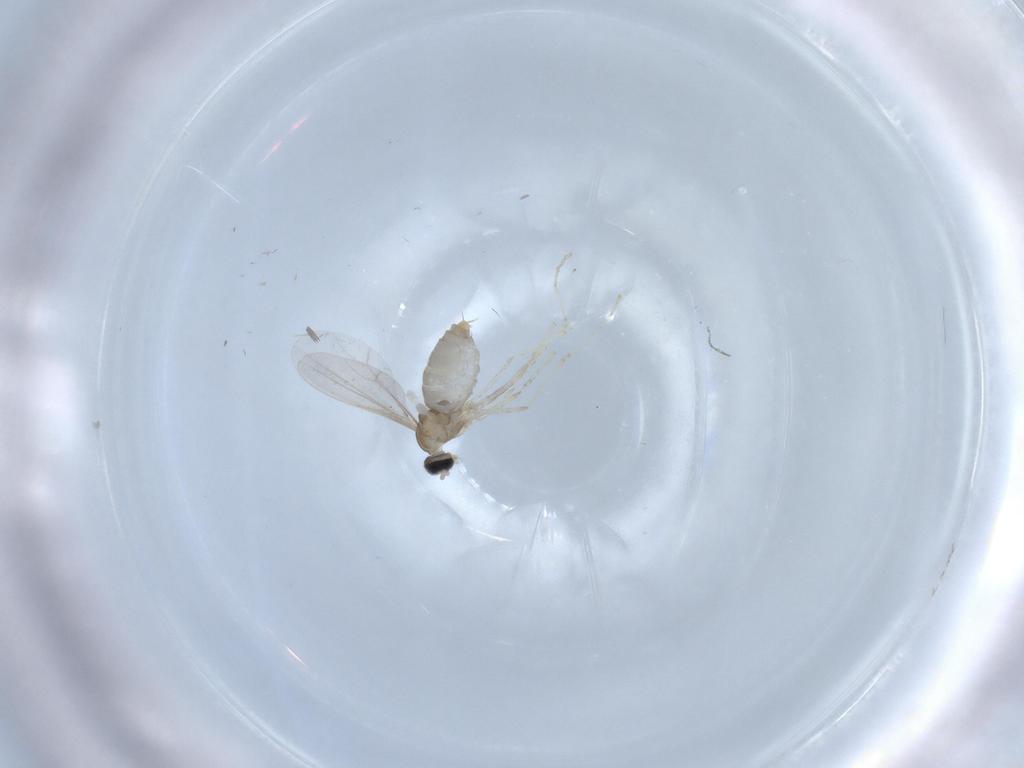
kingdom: Animalia
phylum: Arthropoda
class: Insecta
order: Diptera
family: Cecidomyiidae
